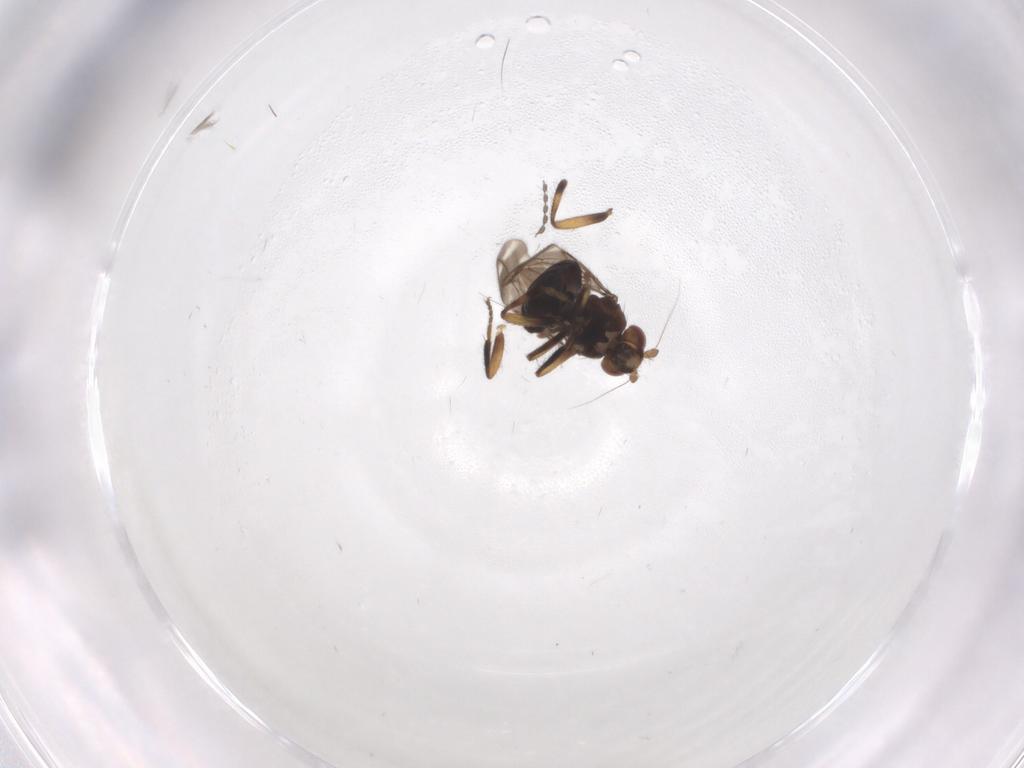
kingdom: Animalia
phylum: Arthropoda
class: Insecta
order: Diptera
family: Sphaeroceridae
